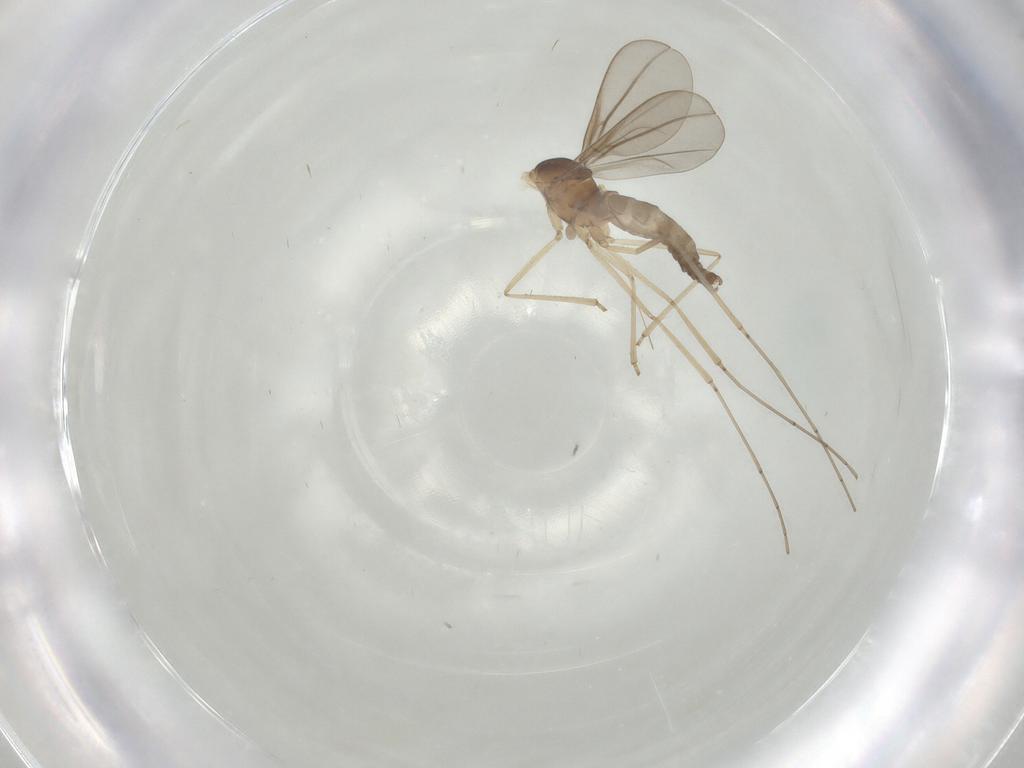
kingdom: Animalia
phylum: Arthropoda
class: Insecta
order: Diptera
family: Cecidomyiidae
